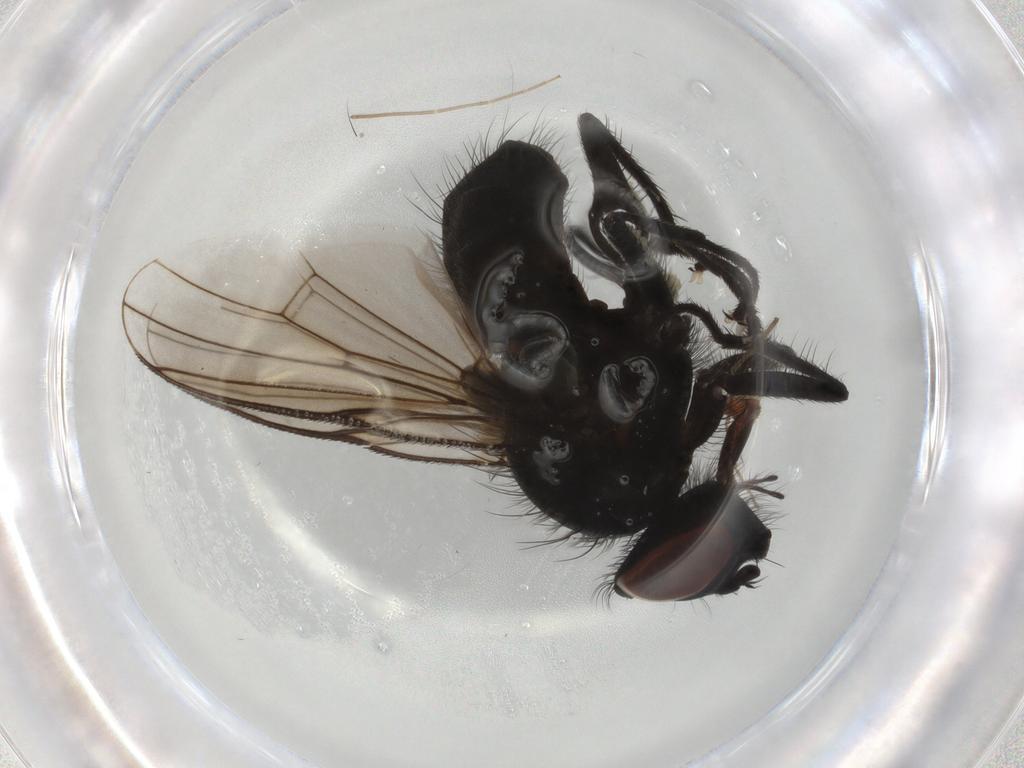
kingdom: Animalia
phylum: Arthropoda
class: Insecta
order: Diptera
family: Muscidae
